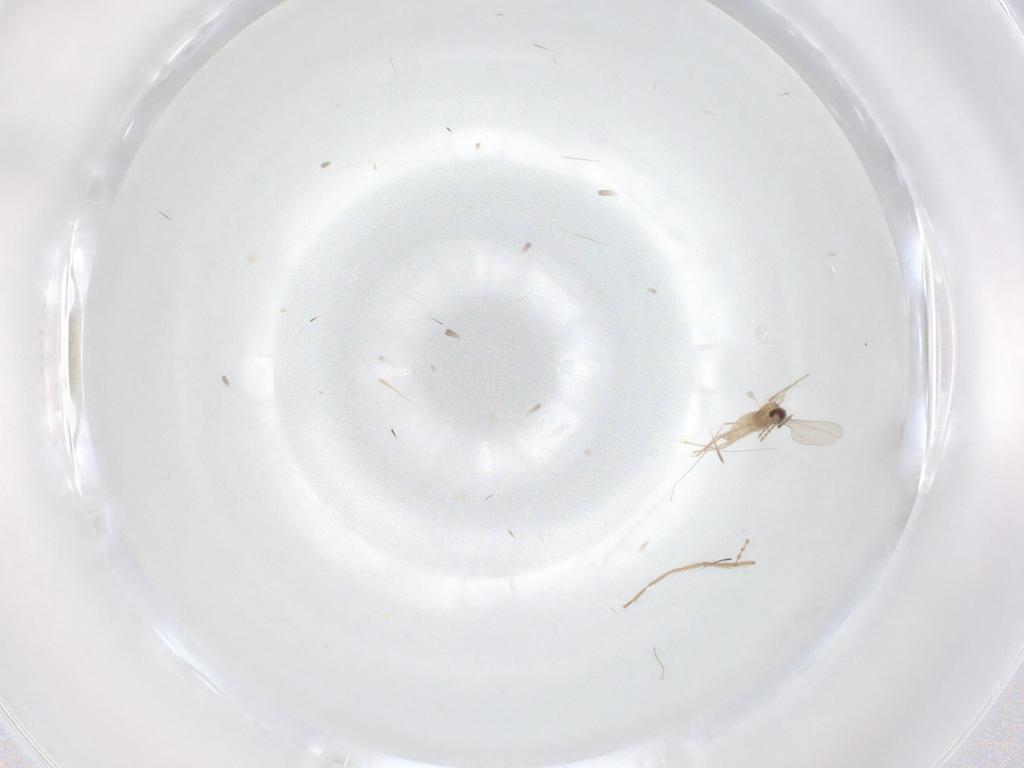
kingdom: Animalia
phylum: Arthropoda
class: Insecta
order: Diptera
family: Cecidomyiidae
